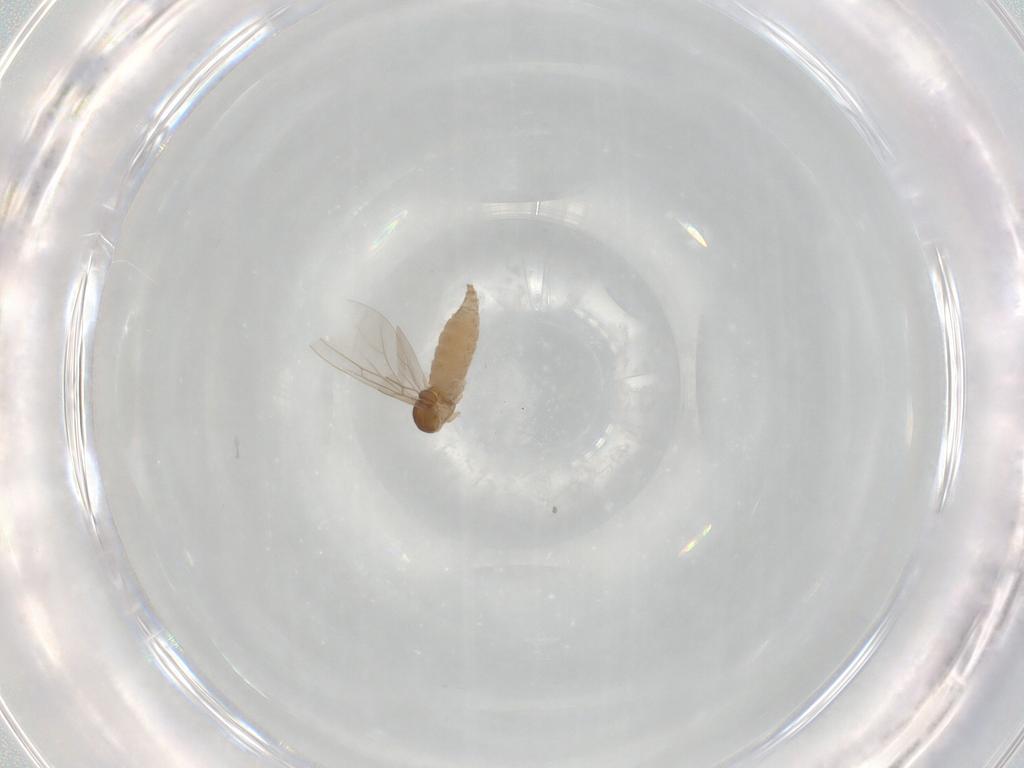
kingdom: Animalia
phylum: Arthropoda
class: Insecta
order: Diptera
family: Cecidomyiidae
